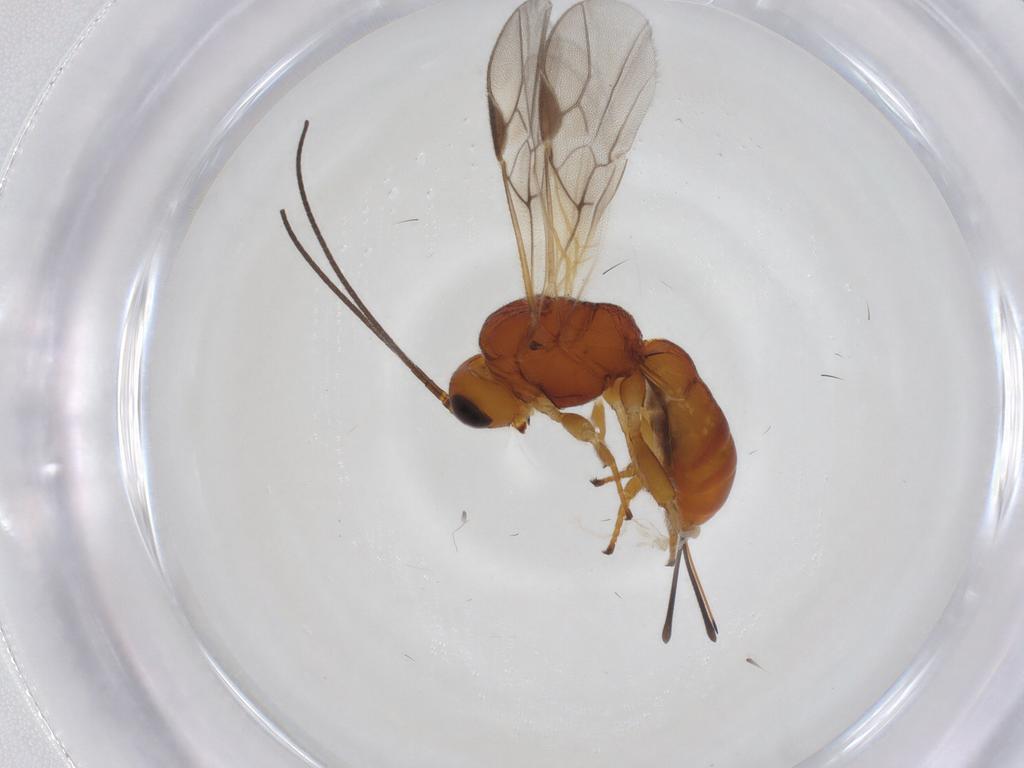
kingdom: Animalia
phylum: Arthropoda
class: Insecta
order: Hymenoptera
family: Braconidae
